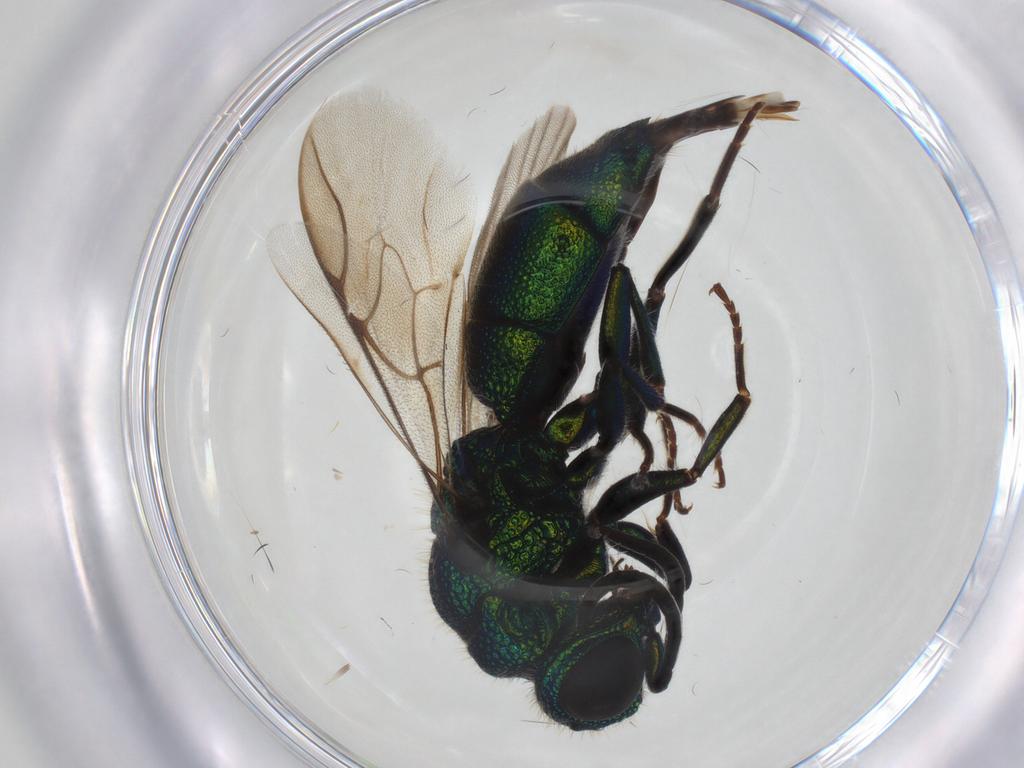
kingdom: Animalia
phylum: Arthropoda
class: Insecta
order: Hymenoptera
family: Chrysididae
